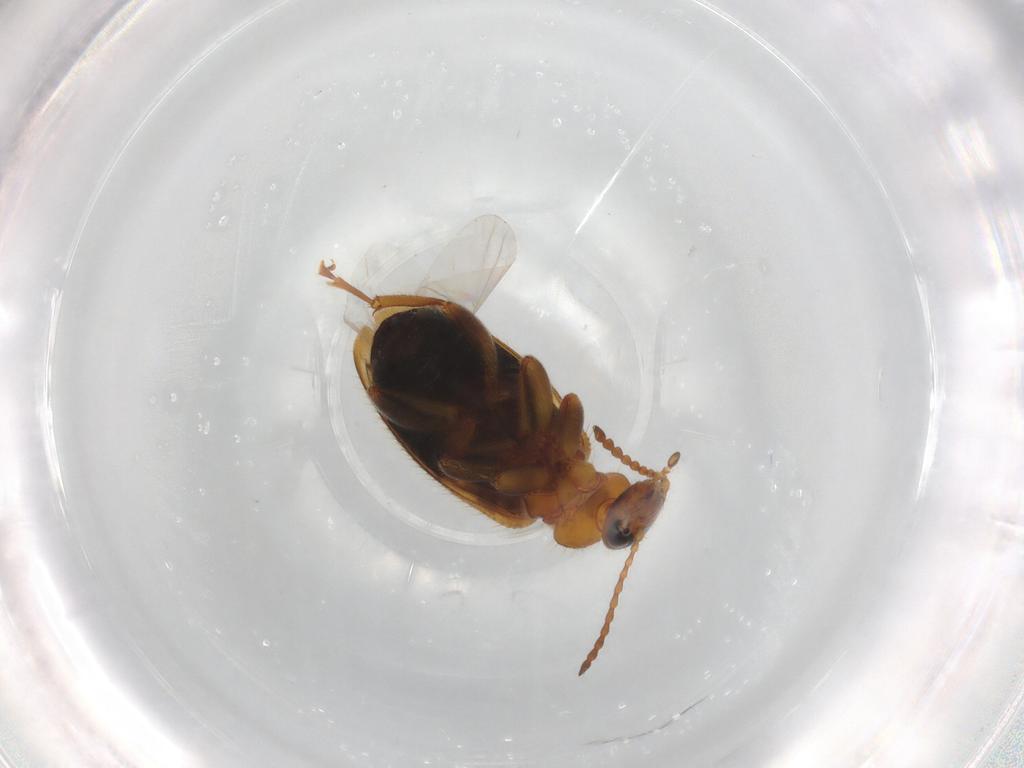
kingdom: Animalia
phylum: Arthropoda
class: Insecta
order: Coleoptera
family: Anthicidae
